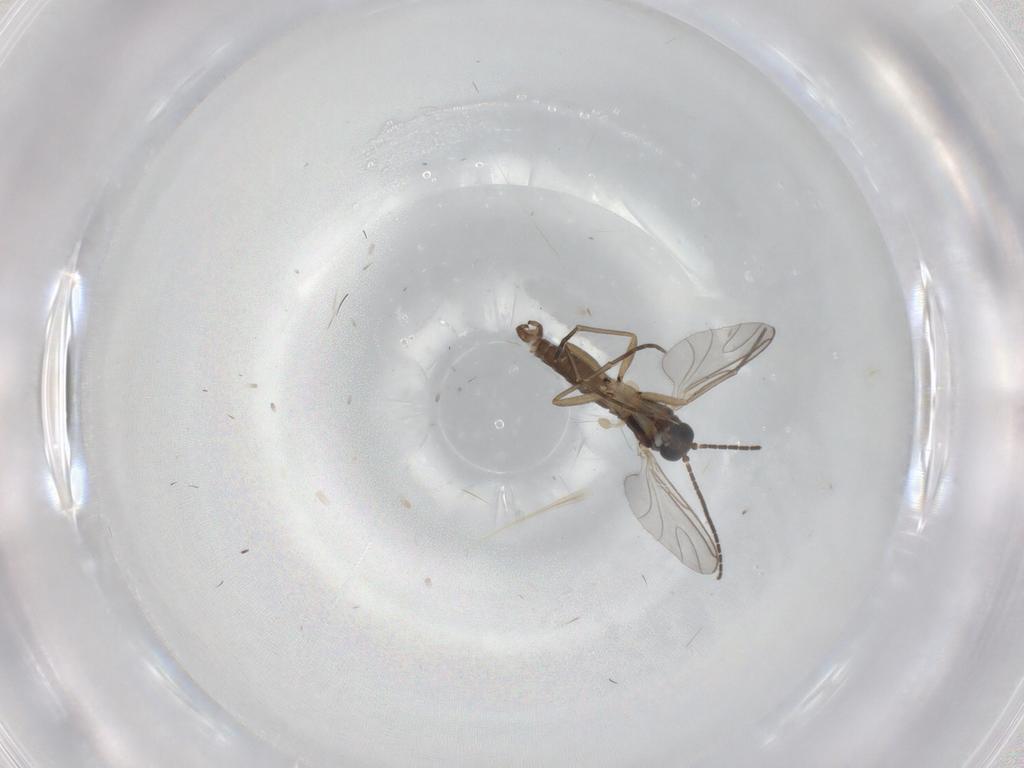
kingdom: Animalia
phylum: Arthropoda
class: Insecta
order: Diptera
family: Sciaridae
